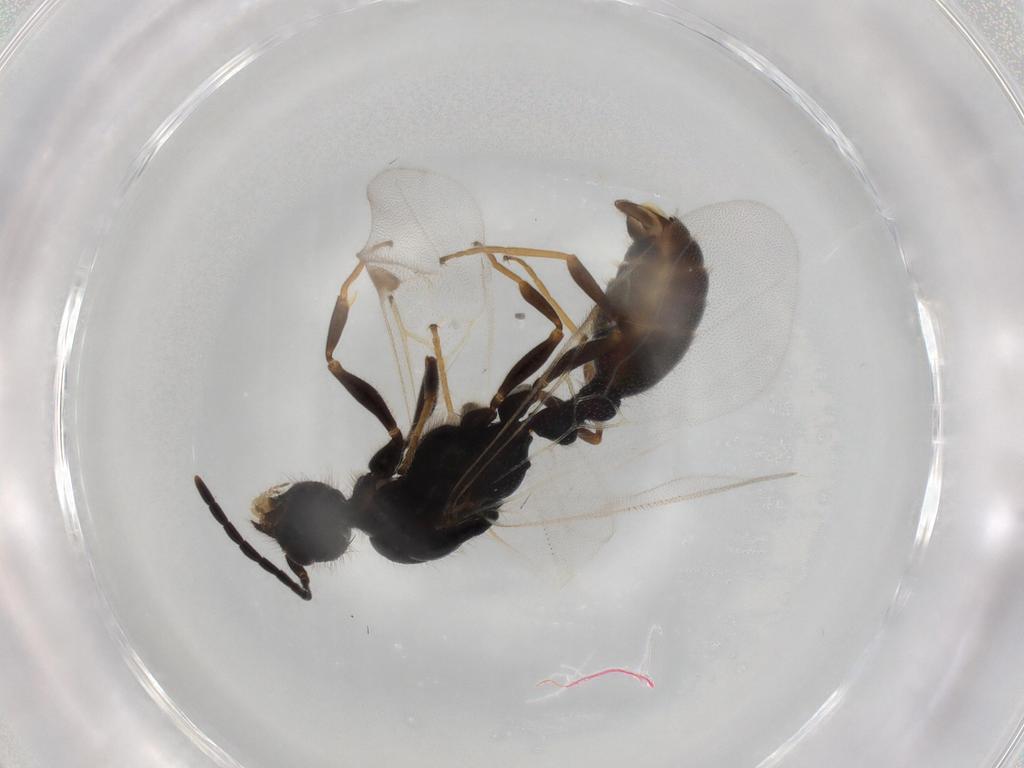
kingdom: Animalia
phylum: Arthropoda
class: Insecta
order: Hymenoptera
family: Formicidae
